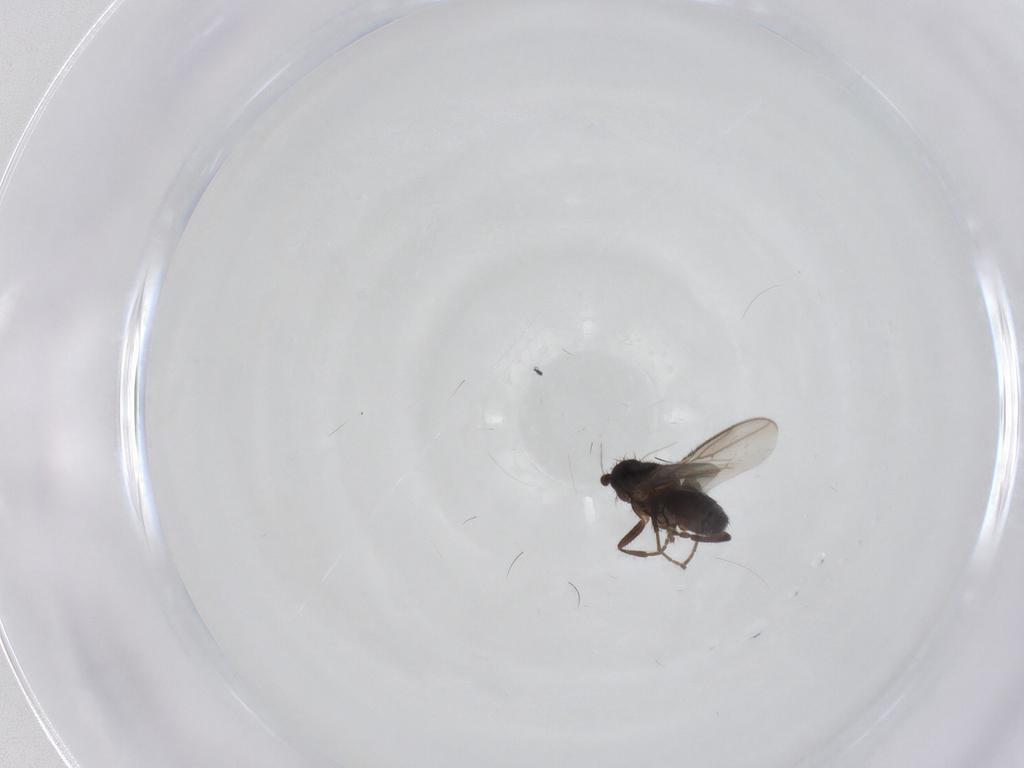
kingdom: Animalia
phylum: Arthropoda
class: Insecta
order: Diptera
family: Sphaeroceridae
